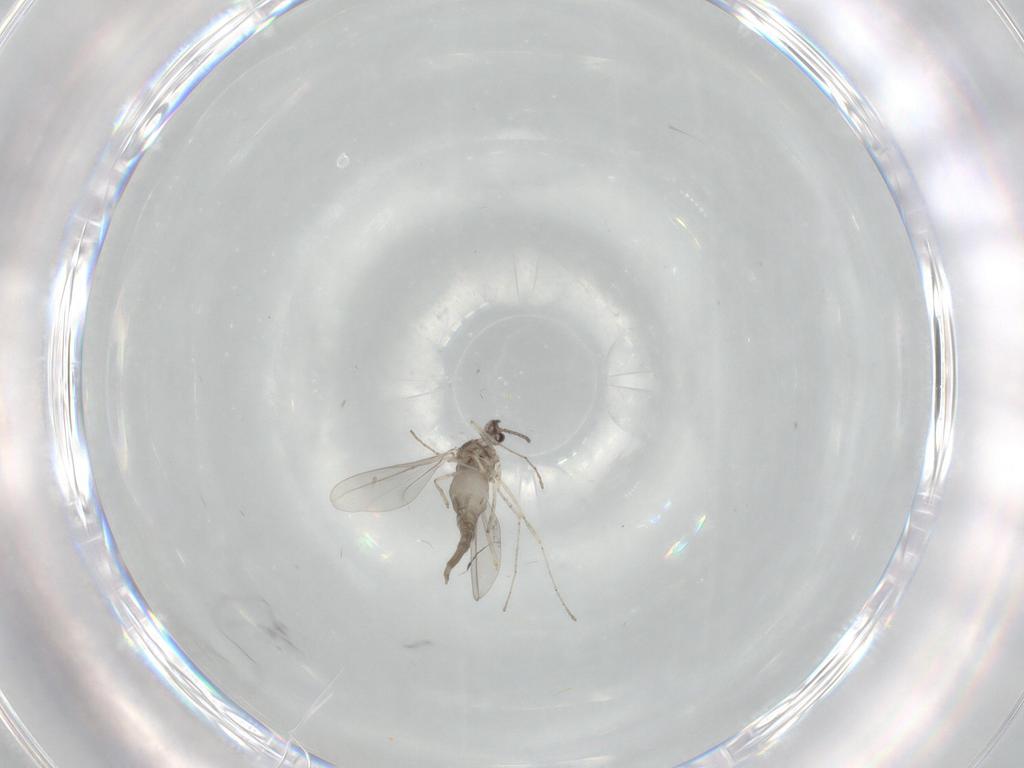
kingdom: Animalia
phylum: Arthropoda
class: Insecta
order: Diptera
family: Cecidomyiidae
